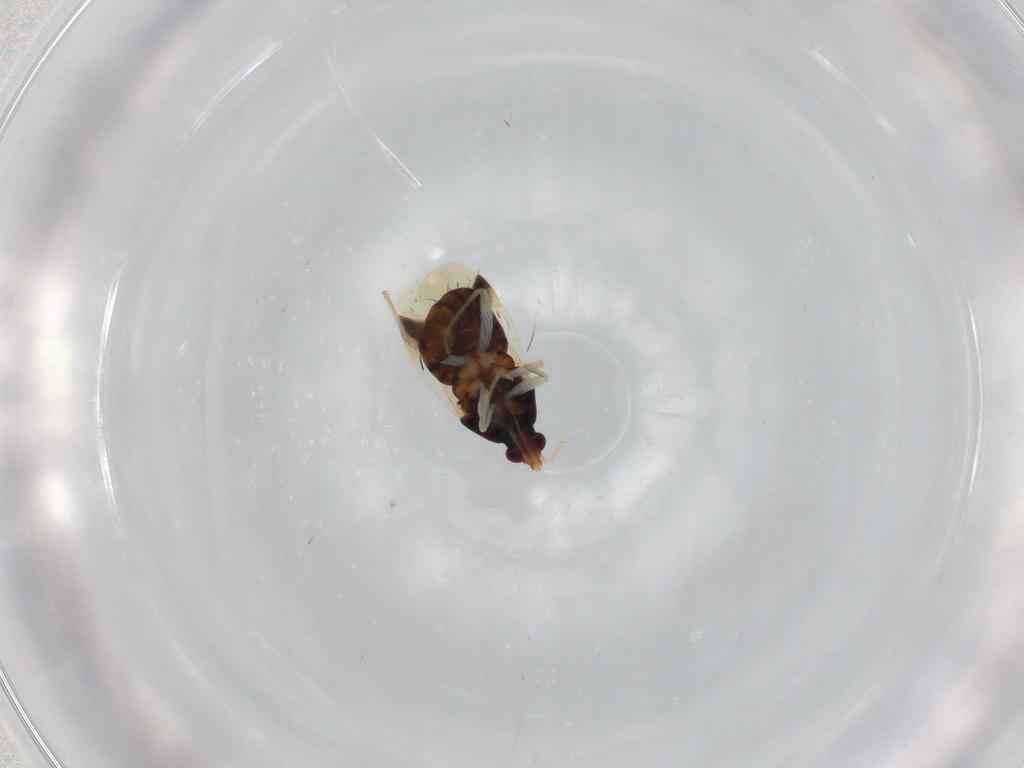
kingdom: Animalia
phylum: Arthropoda
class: Insecta
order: Hemiptera
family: Anthocoridae
